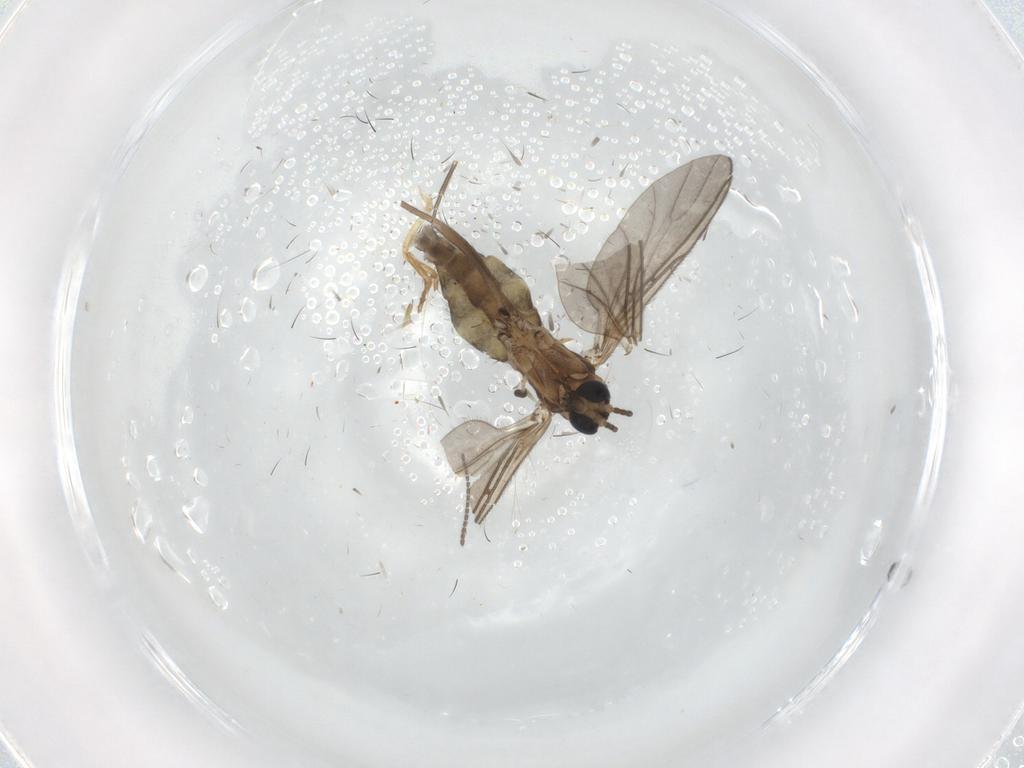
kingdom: Animalia
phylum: Arthropoda
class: Insecta
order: Diptera
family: Sciaridae
